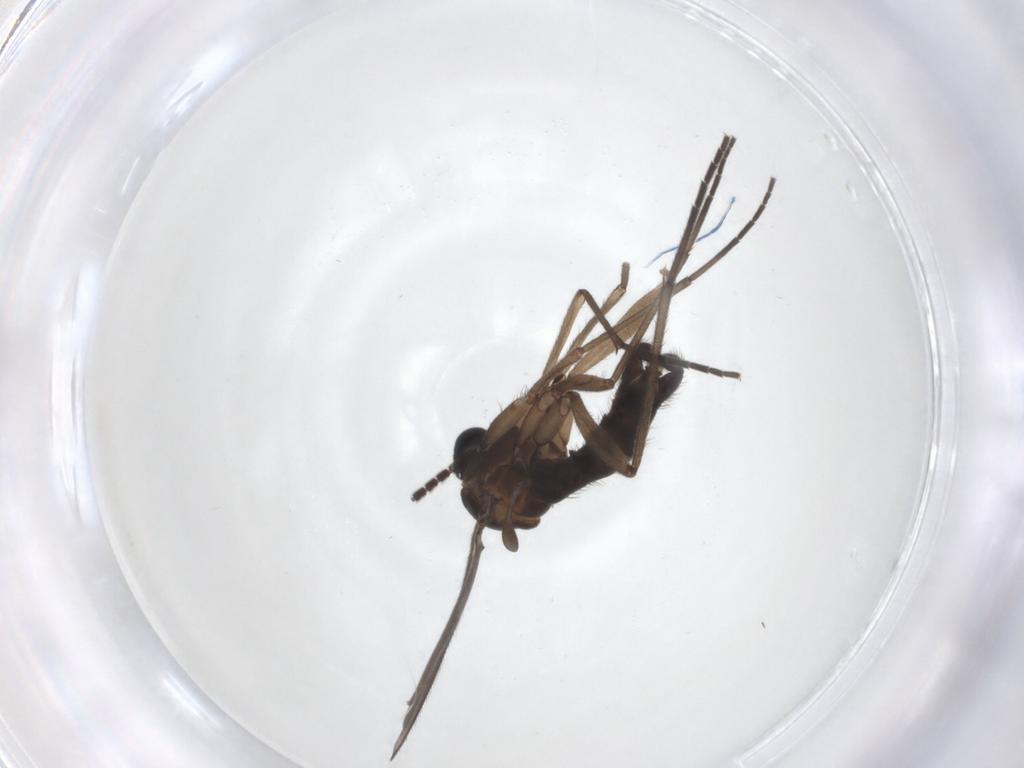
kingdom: Animalia
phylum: Arthropoda
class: Insecta
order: Diptera
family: Sciaridae
